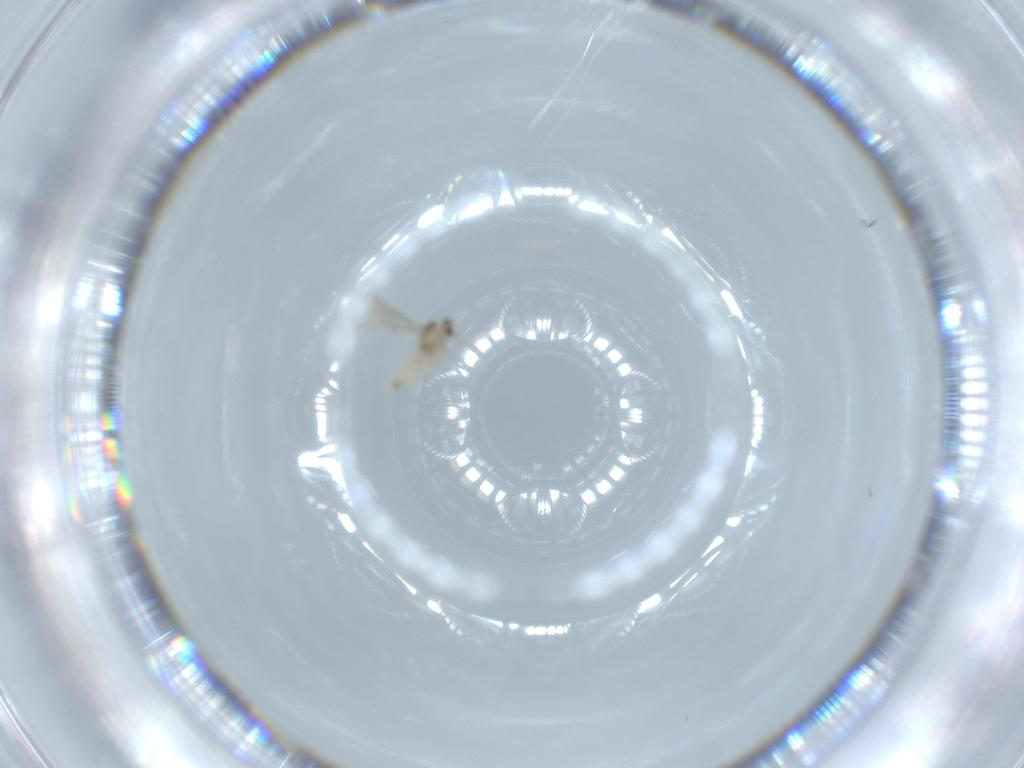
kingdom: Animalia
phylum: Arthropoda
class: Insecta
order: Diptera
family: Cecidomyiidae
